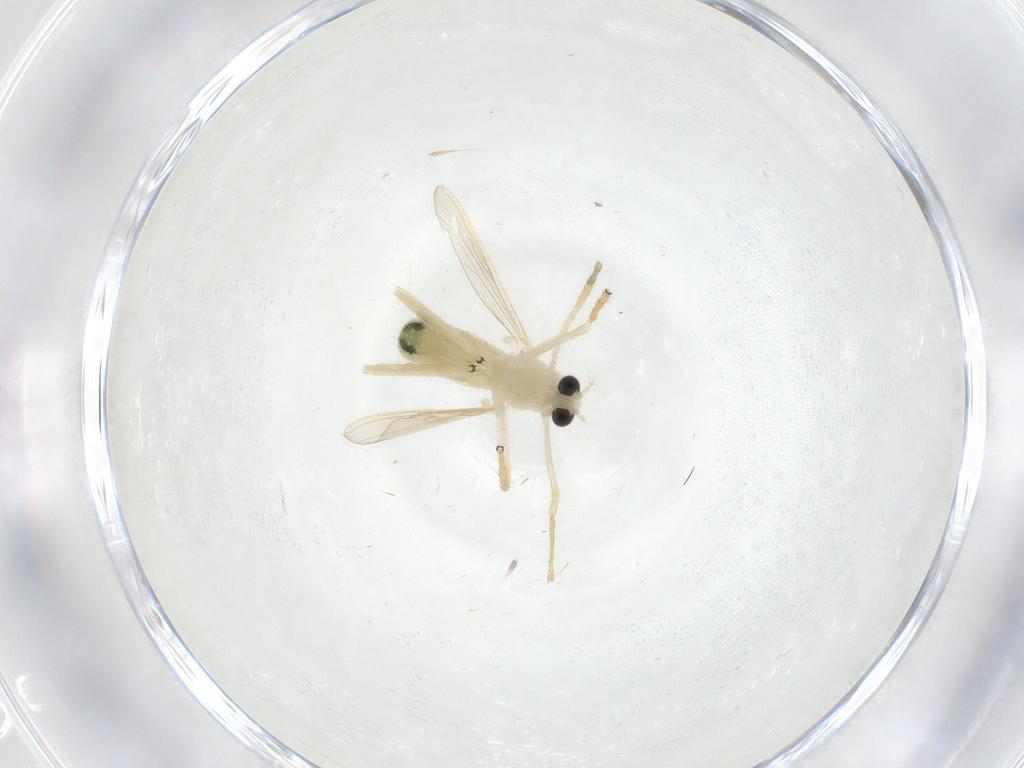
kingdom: Animalia
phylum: Arthropoda
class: Insecta
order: Diptera
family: Chironomidae
